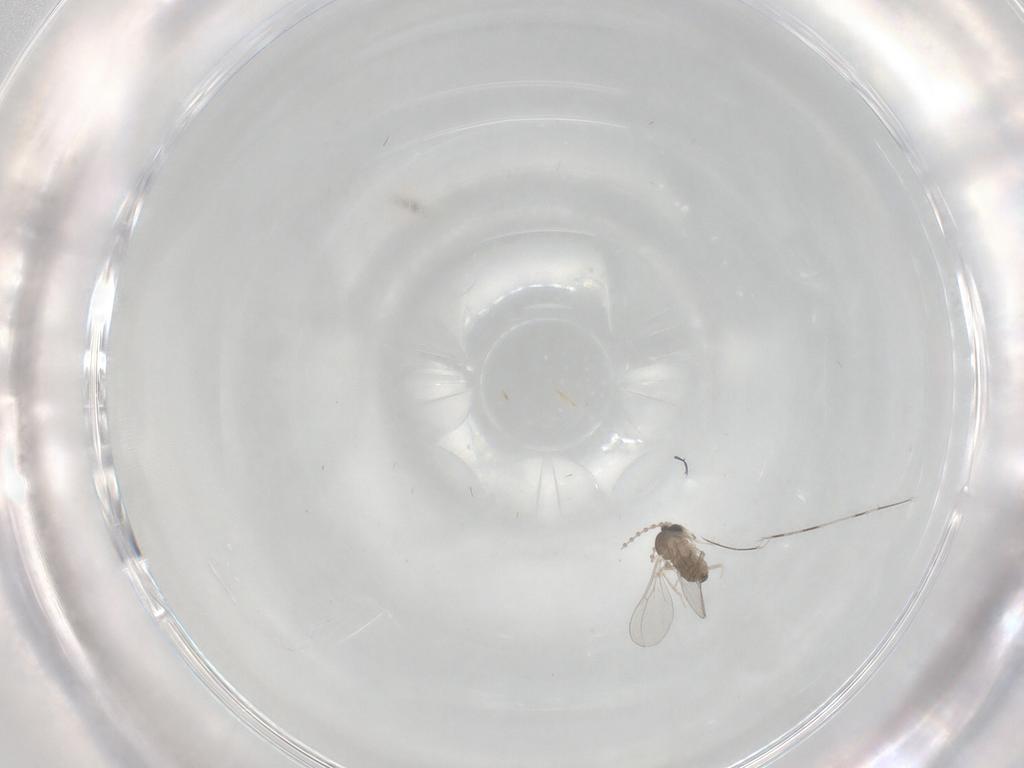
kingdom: Animalia
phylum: Arthropoda
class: Insecta
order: Diptera
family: Cecidomyiidae
